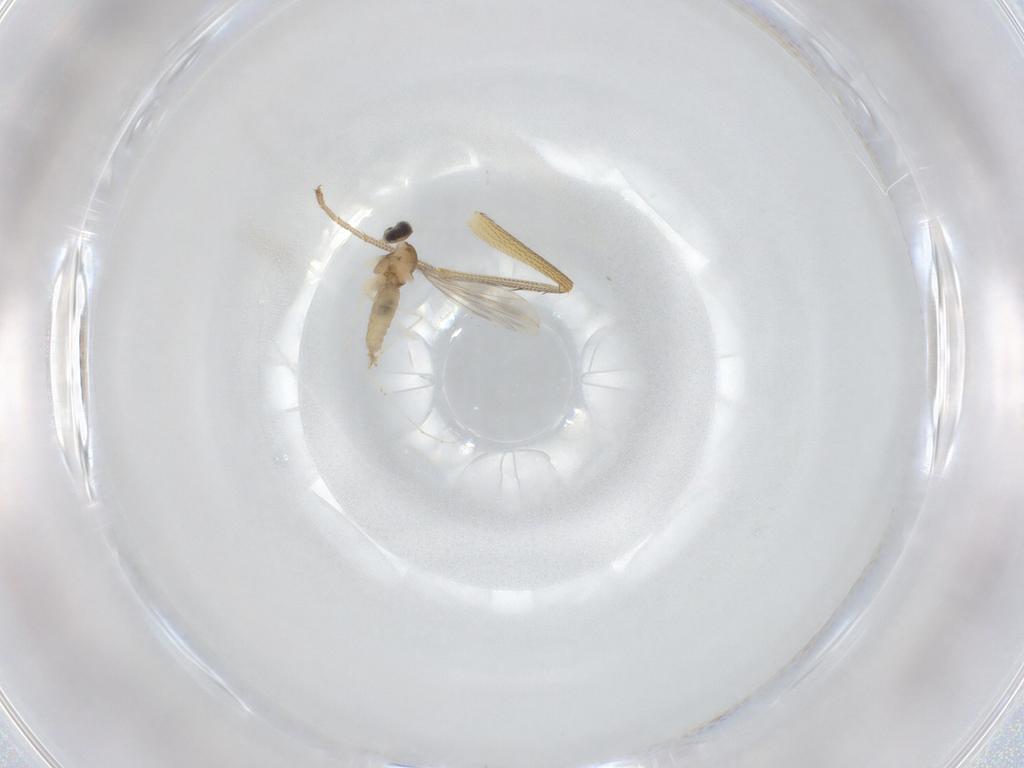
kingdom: Animalia
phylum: Arthropoda
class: Insecta
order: Diptera
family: Dolichopodidae
